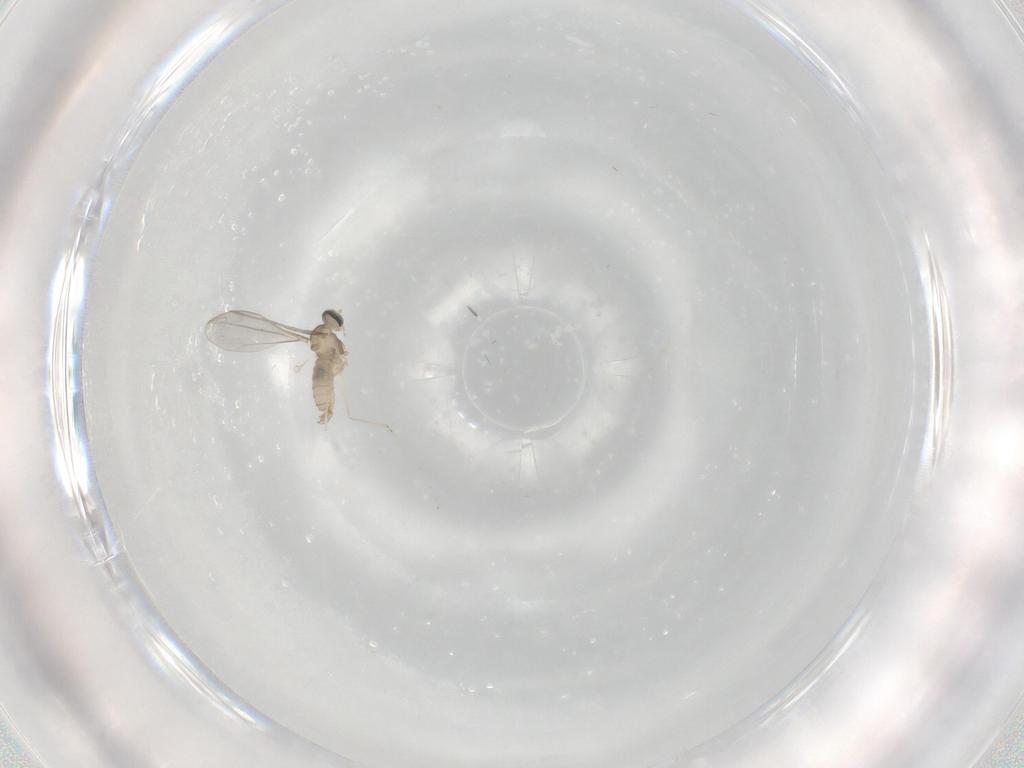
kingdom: Animalia
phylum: Arthropoda
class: Insecta
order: Diptera
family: Cecidomyiidae
